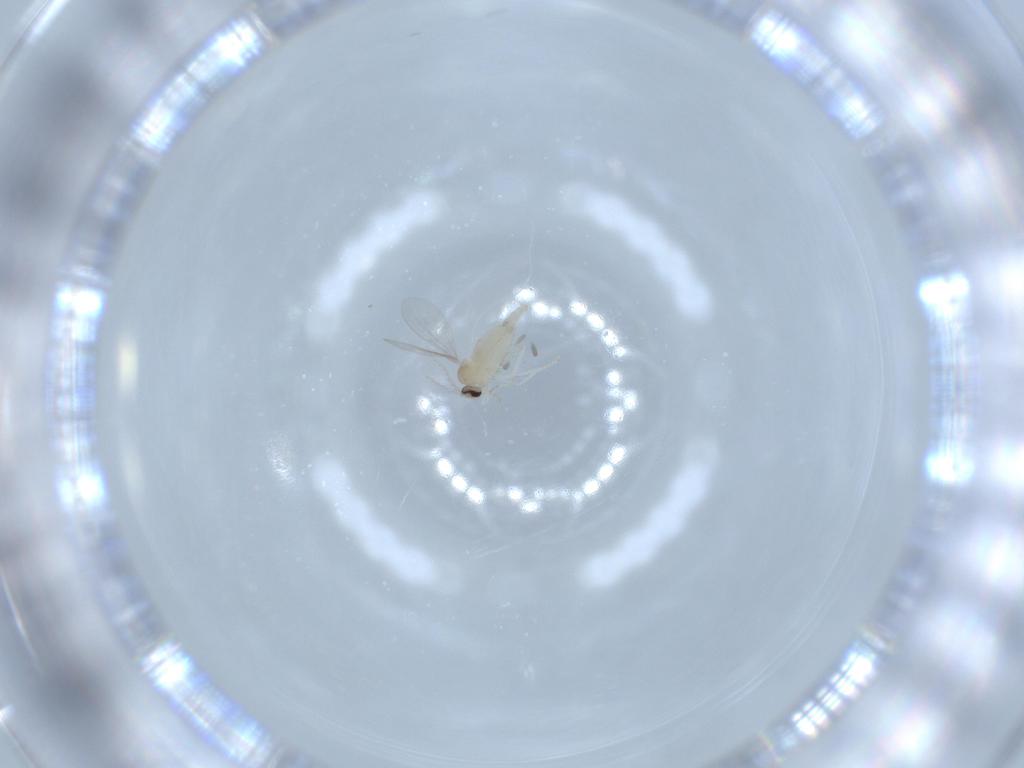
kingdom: Animalia
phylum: Arthropoda
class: Insecta
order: Diptera
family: Cecidomyiidae
